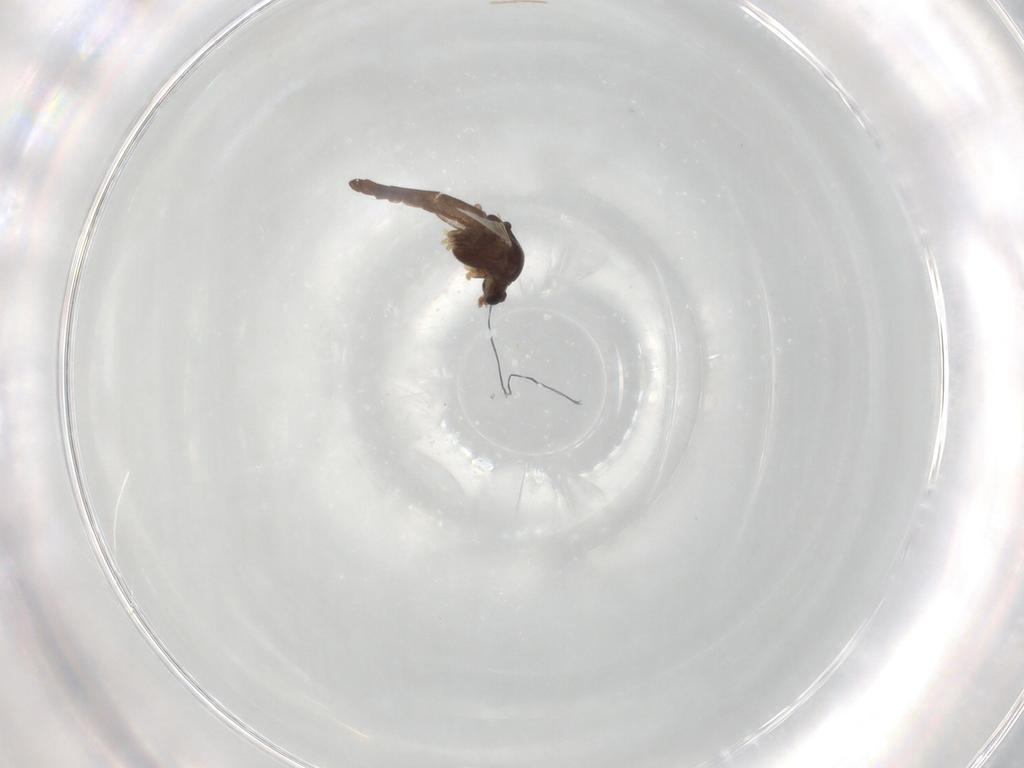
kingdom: Animalia
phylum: Arthropoda
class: Insecta
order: Diptera
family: Chironomidae
